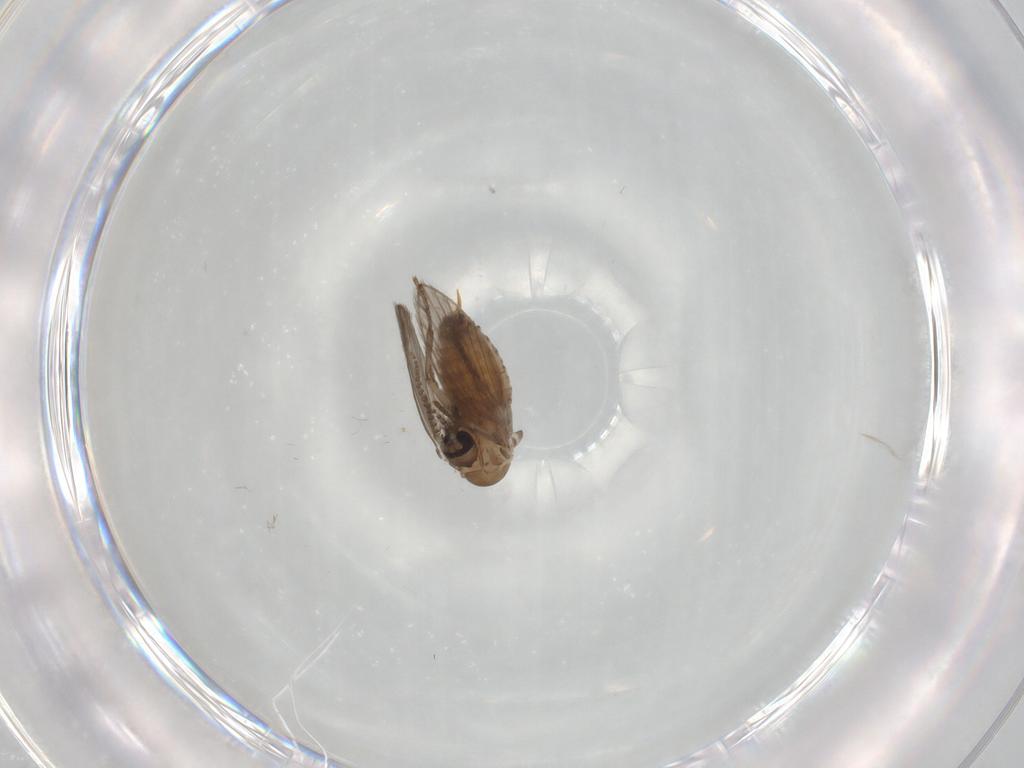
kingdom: Animalia
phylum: Arthropoda
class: Insecta
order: Diptera
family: Psychodidae
